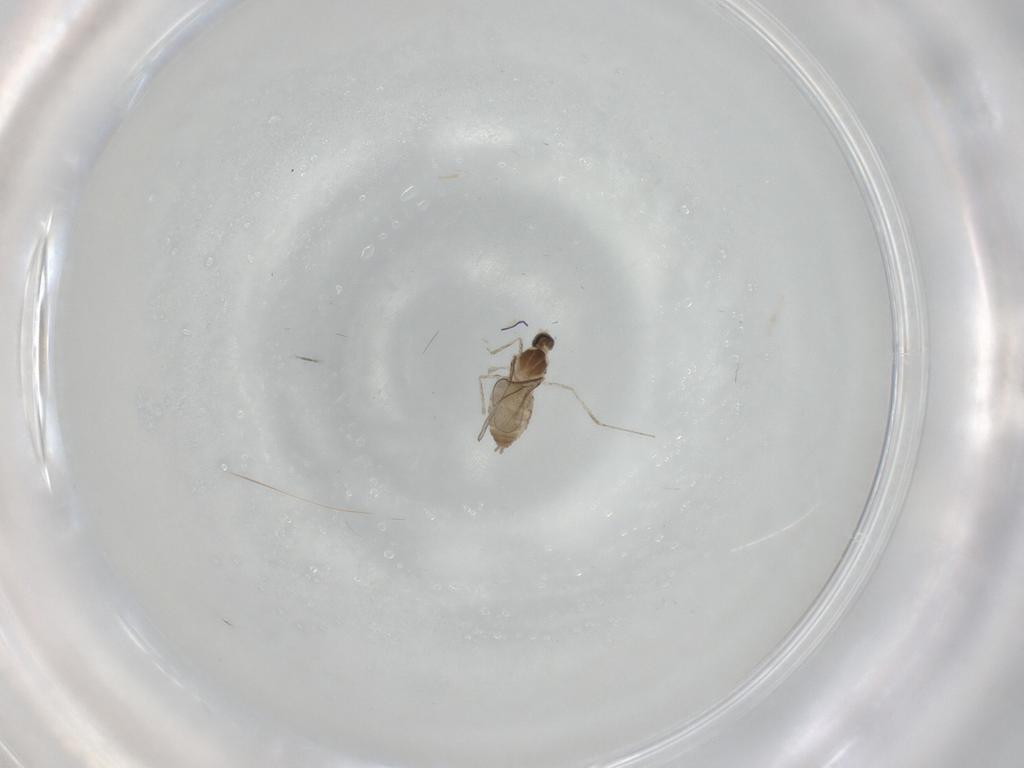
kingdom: Animalia
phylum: Arthropoda
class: Insecta
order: Diptera
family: Cecidomyiidae
